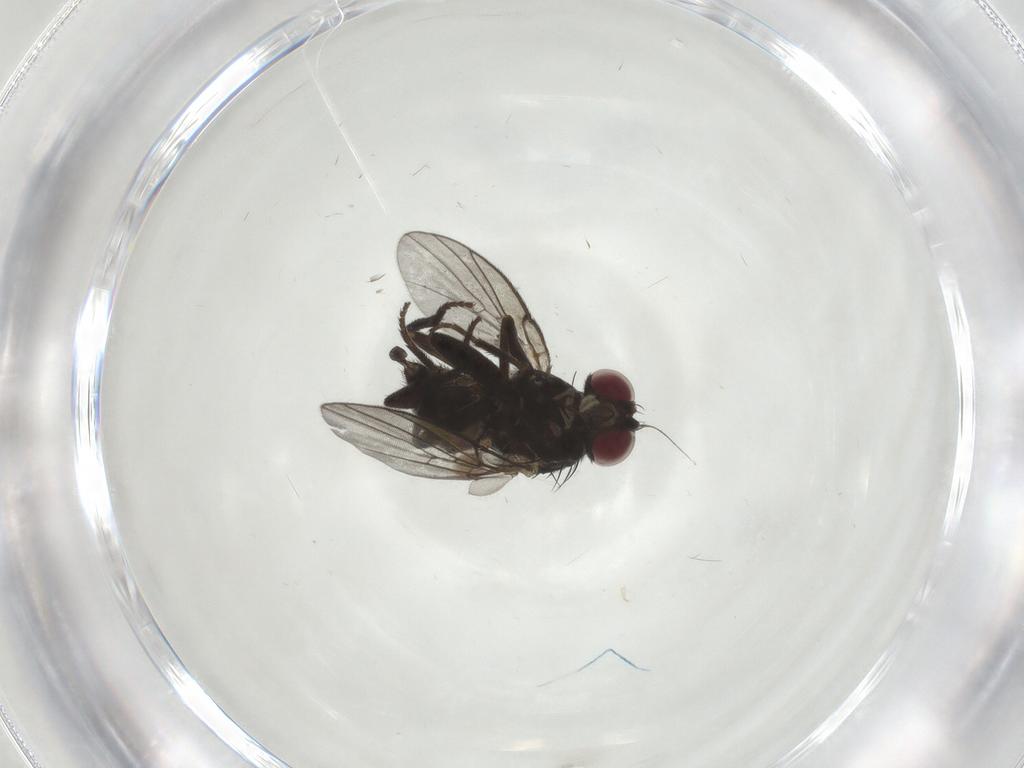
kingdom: Animalia
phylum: Arthropoda
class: Insecta
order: Diptera
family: Agromyzidae
